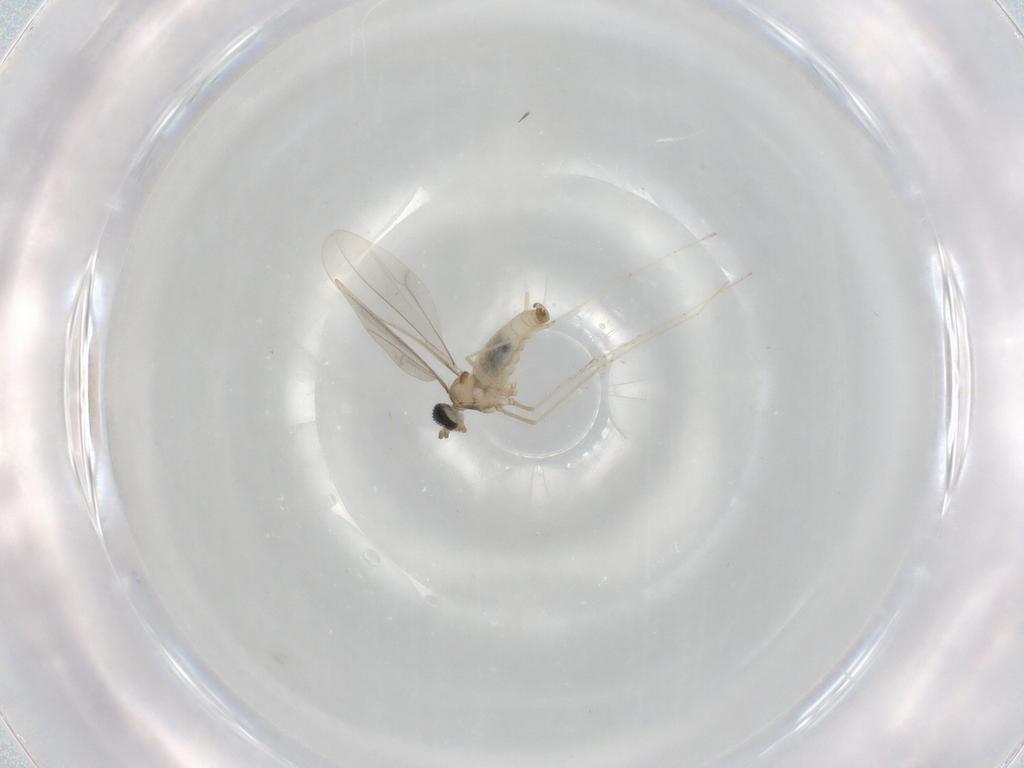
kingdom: Animalia
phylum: Arthropoda
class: Insecta
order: Diptera
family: Cecidomyiidae
